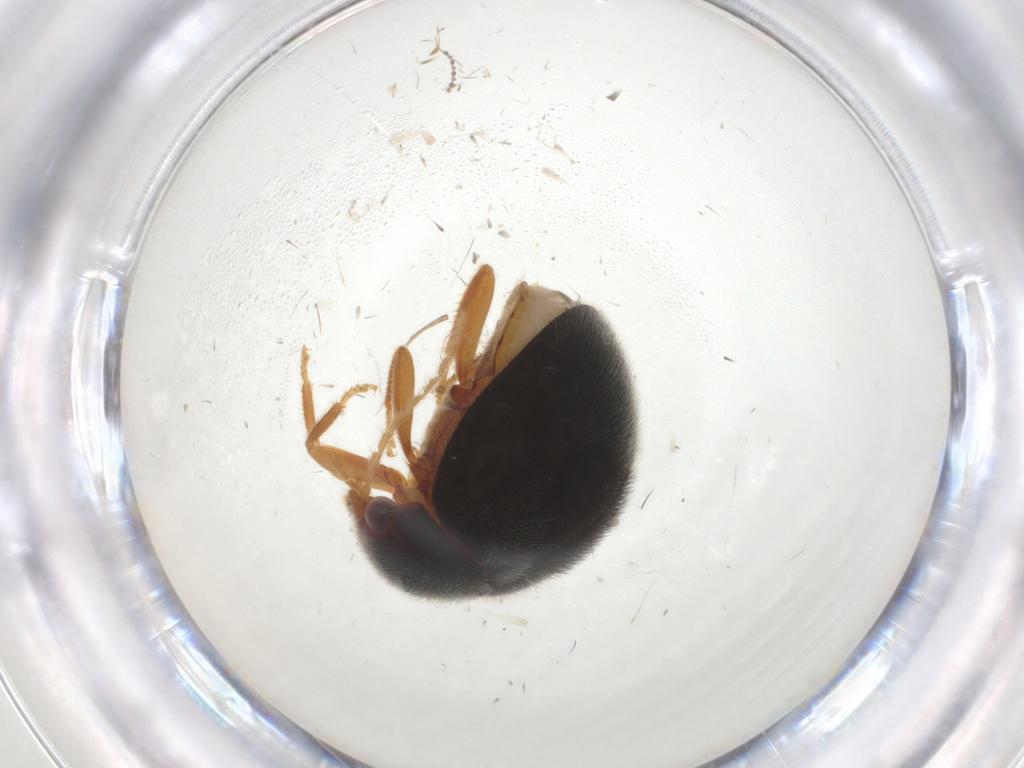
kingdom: Animalia
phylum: Arthropoda
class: Insecta
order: Coleoptera
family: Scirtidae
